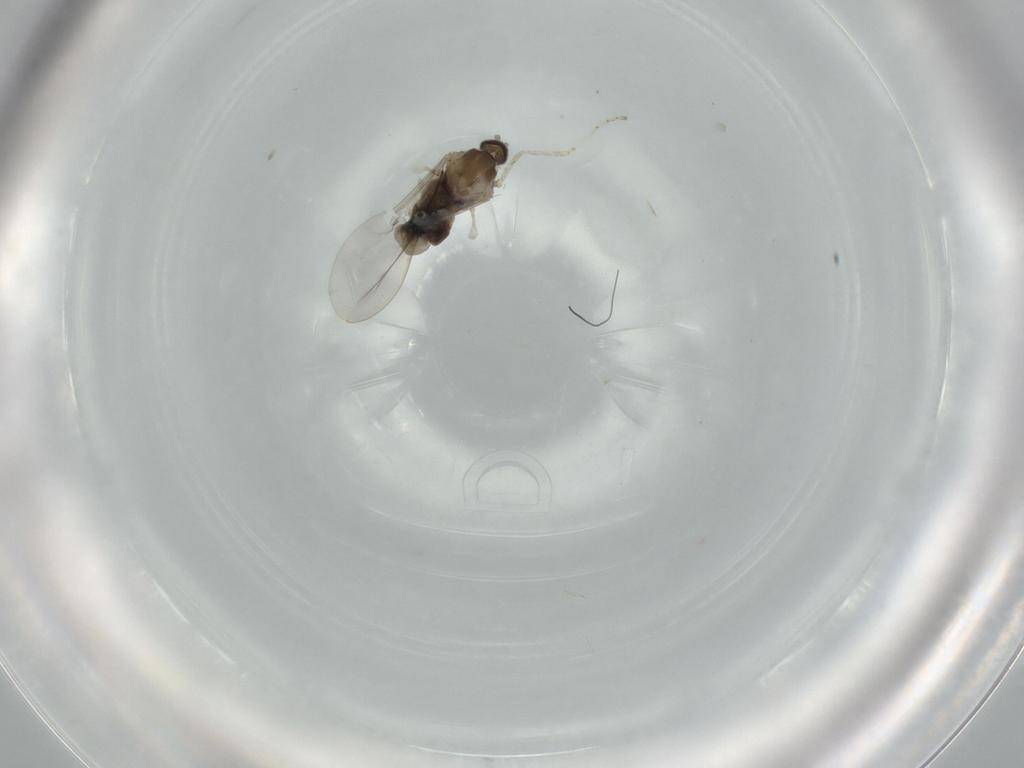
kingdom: Animalia
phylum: Arthropoda
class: Insecta
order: Diptera
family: Cecidomyiidae
